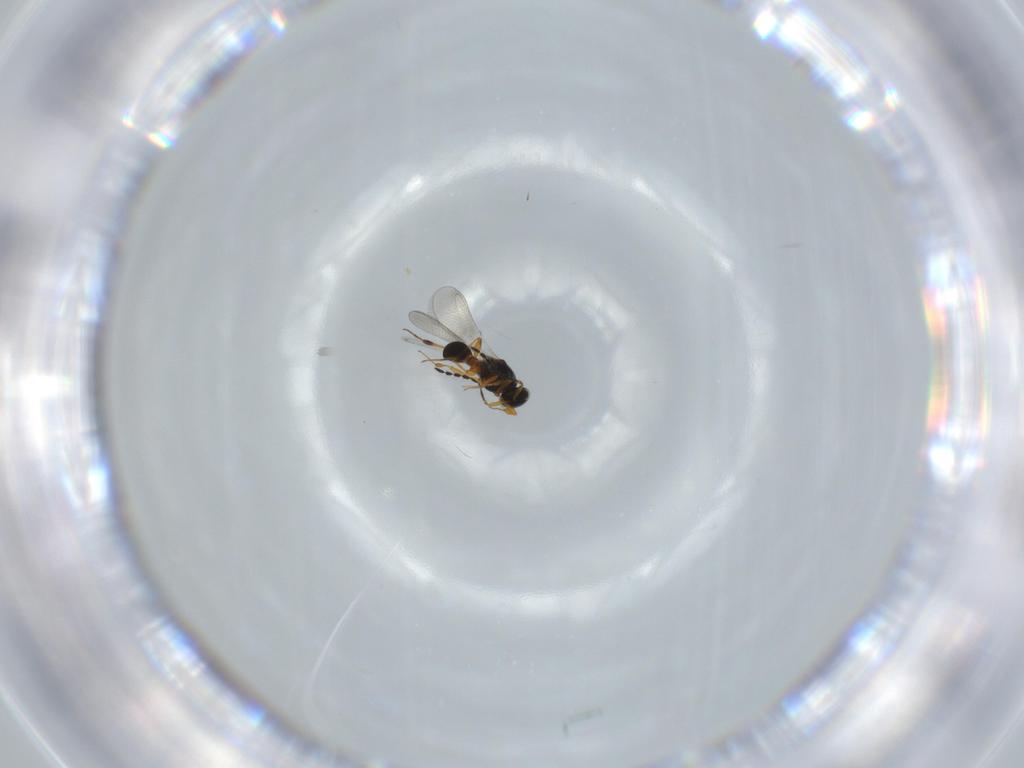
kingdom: Animalia
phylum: Arthropoda
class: Insecta
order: Hymenoptera
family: Platygastridae
